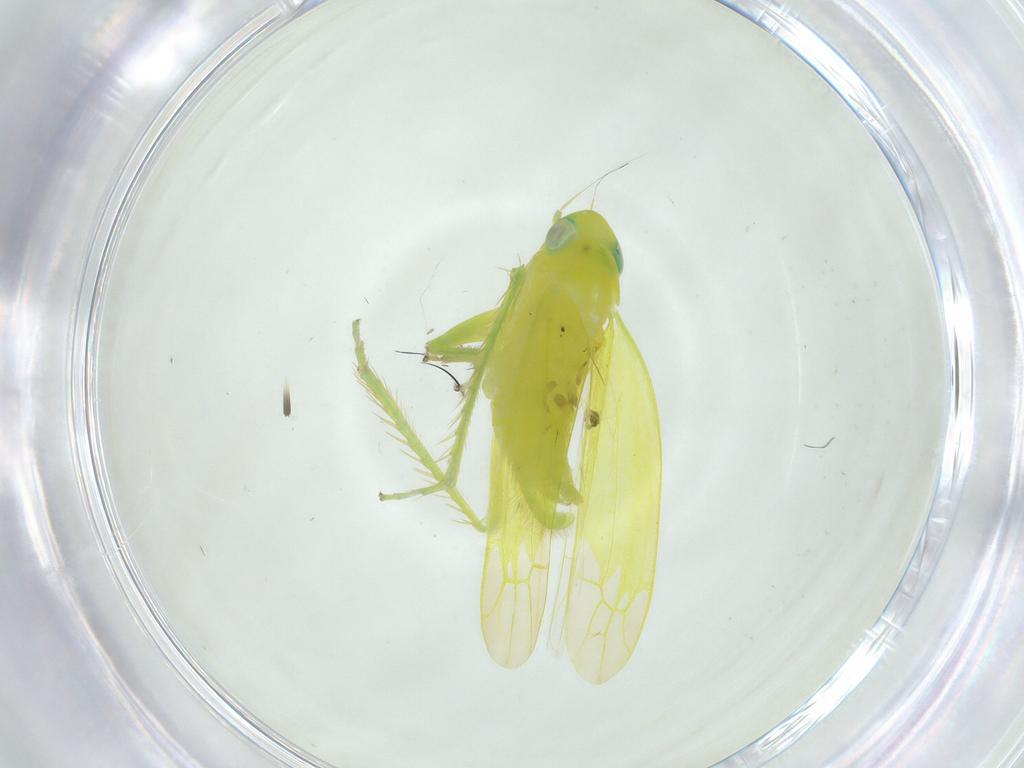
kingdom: Animalia
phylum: Arthropoda
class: Insecta
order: Hemiptera
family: Cicadellidae
